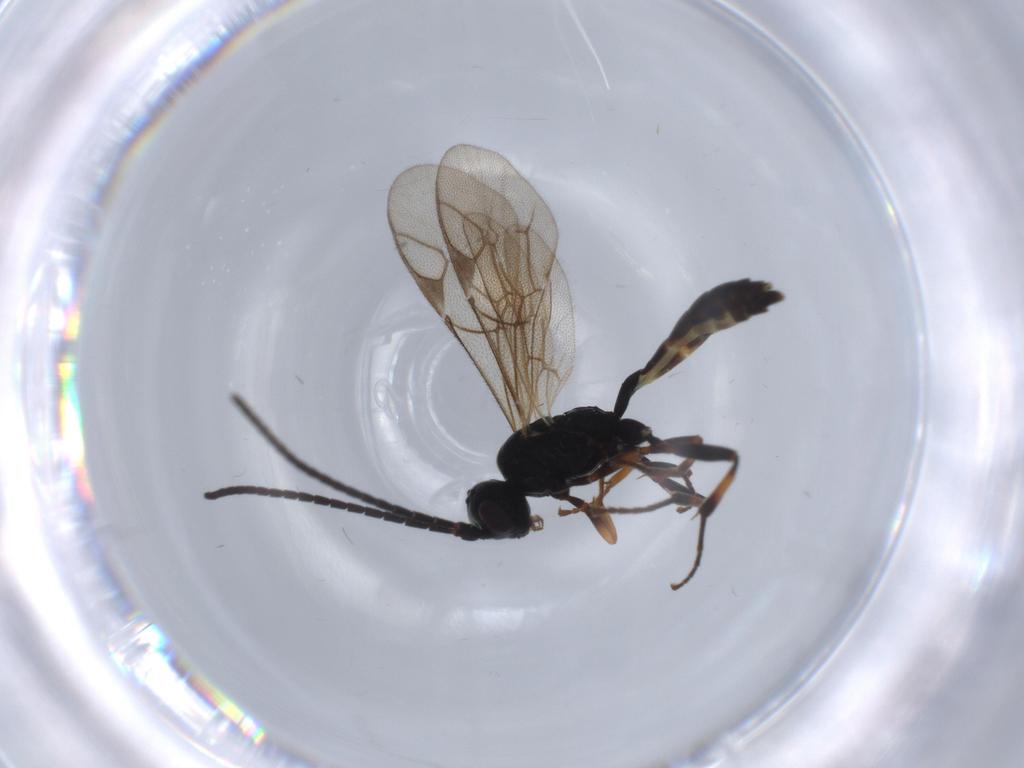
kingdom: Animalia
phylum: Arthropoda
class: Insecta
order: Hymenoptera
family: Ichneumonidae
